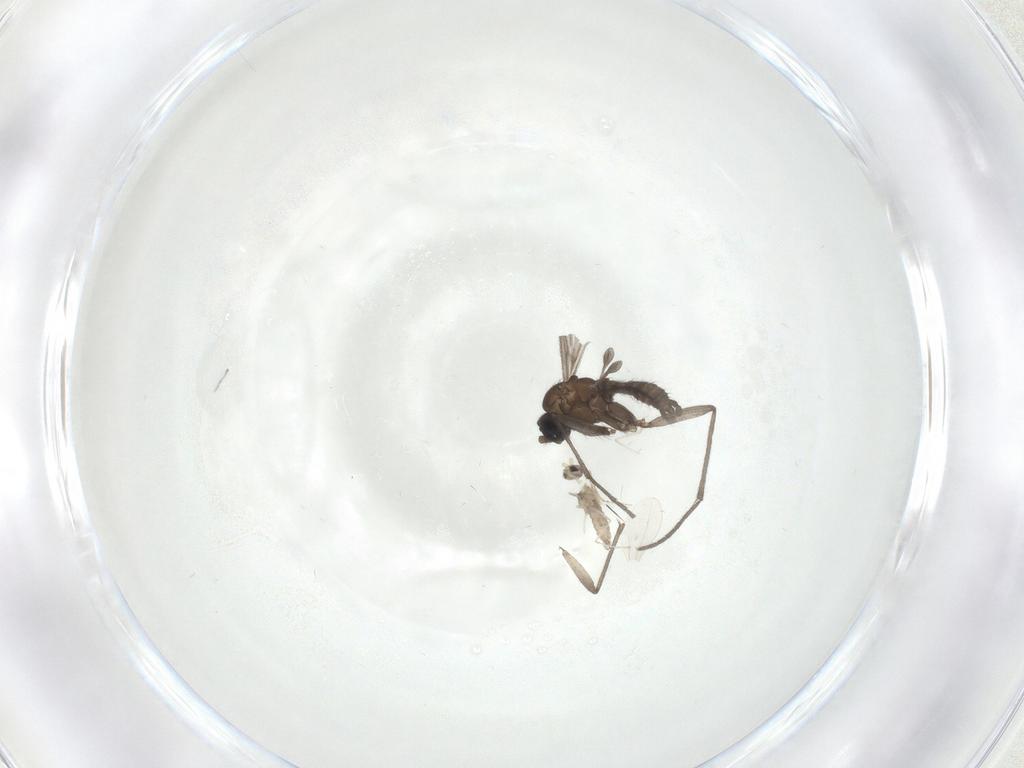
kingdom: Animalia
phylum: Arthropoda
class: Insecta
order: Diptera
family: Sciaridae
